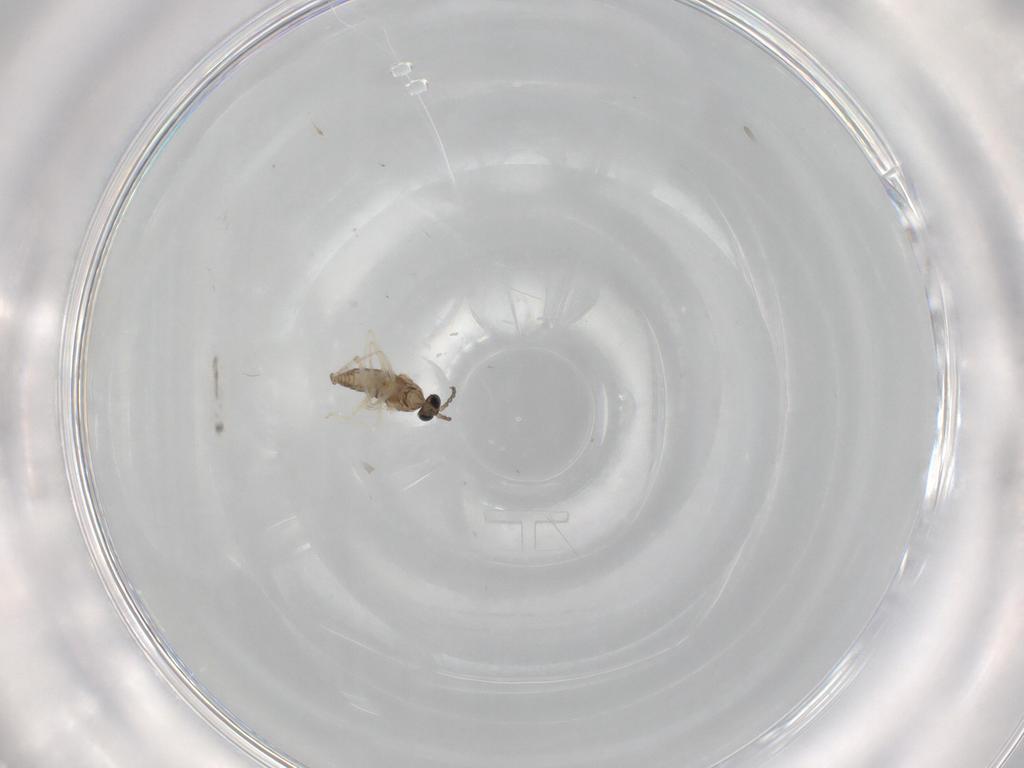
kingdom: Animalia
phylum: Arthropoda
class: Insecta
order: Diptera
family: Cecidomyiidae
